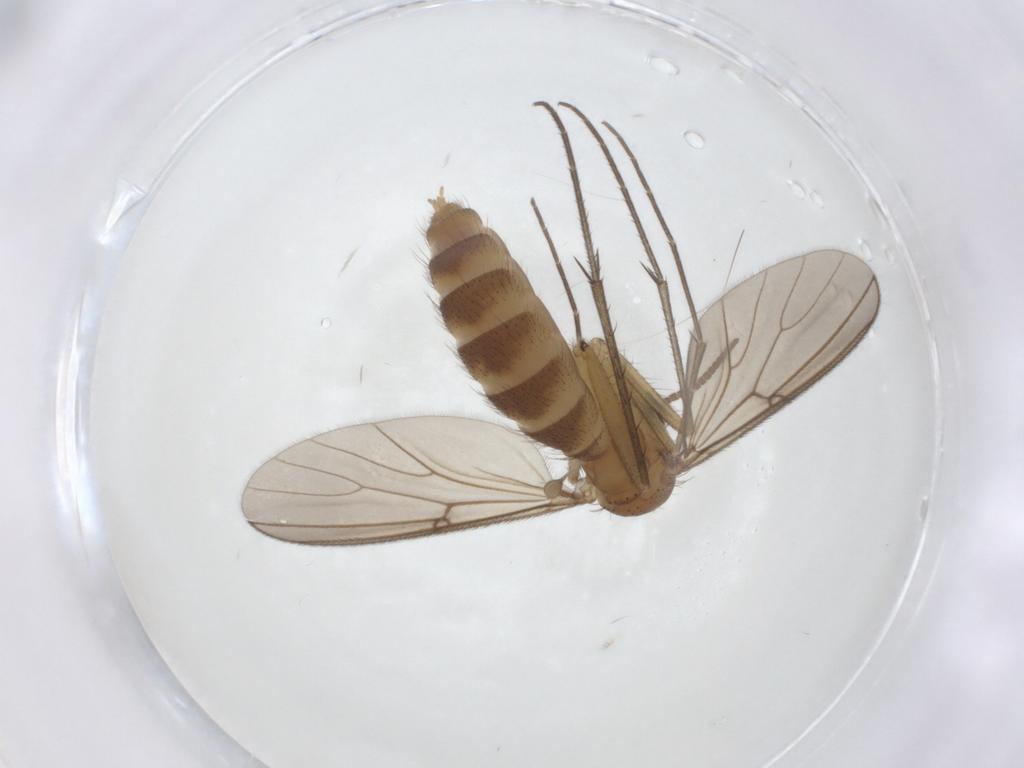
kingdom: Animalia
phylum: Arthropoda
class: Insecta
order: Diptera
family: Mycetophilidae
